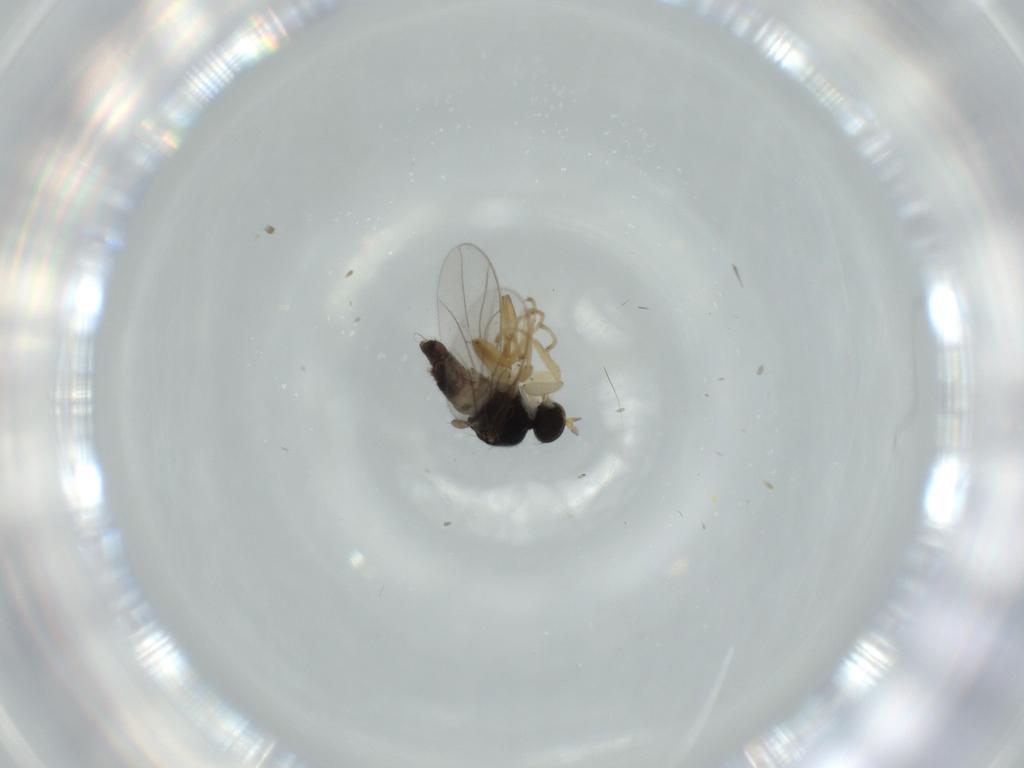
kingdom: Animalia
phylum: Arthropoda
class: Insecta
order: Diptera
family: Hybotidae
